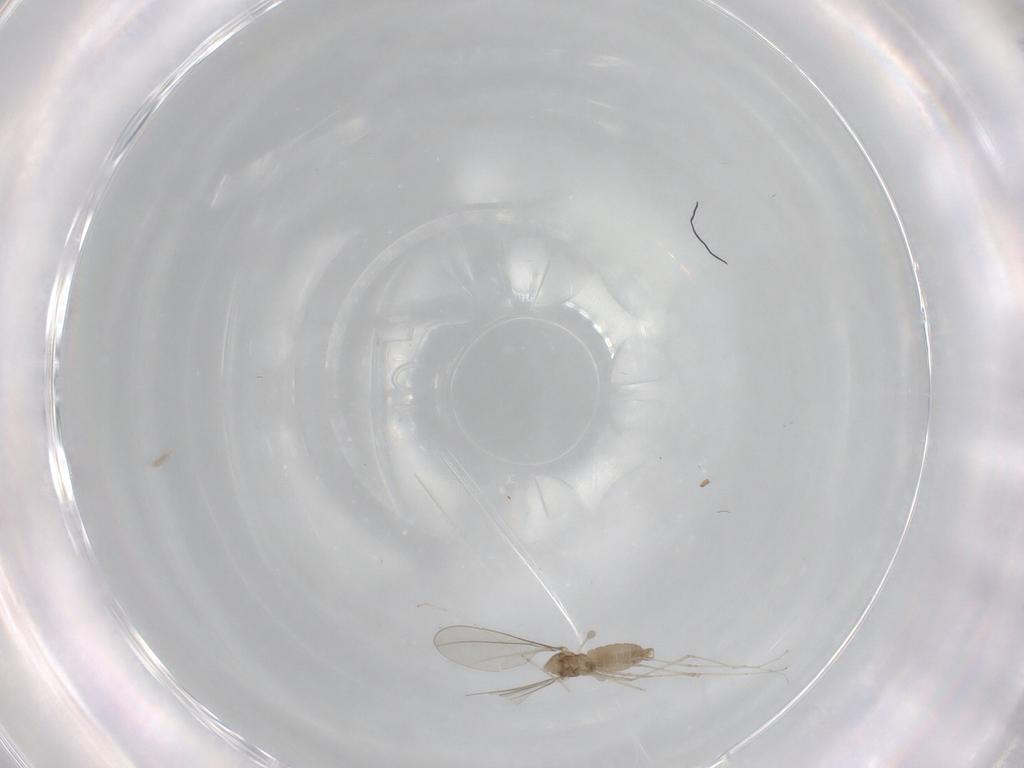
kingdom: Animalia
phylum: Arthropoda
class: Insecta
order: Diptera
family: Cecidomyiidae
